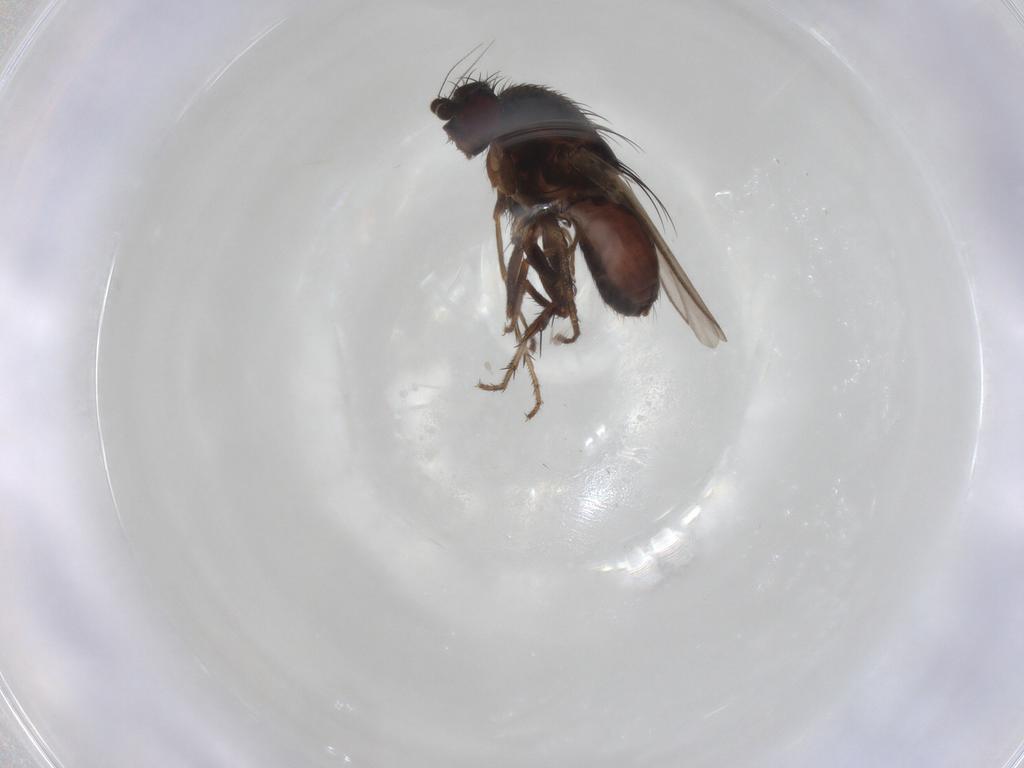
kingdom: Animalia
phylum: Arthropoda
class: Insecta
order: Diptera
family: Sphaeroceridae
